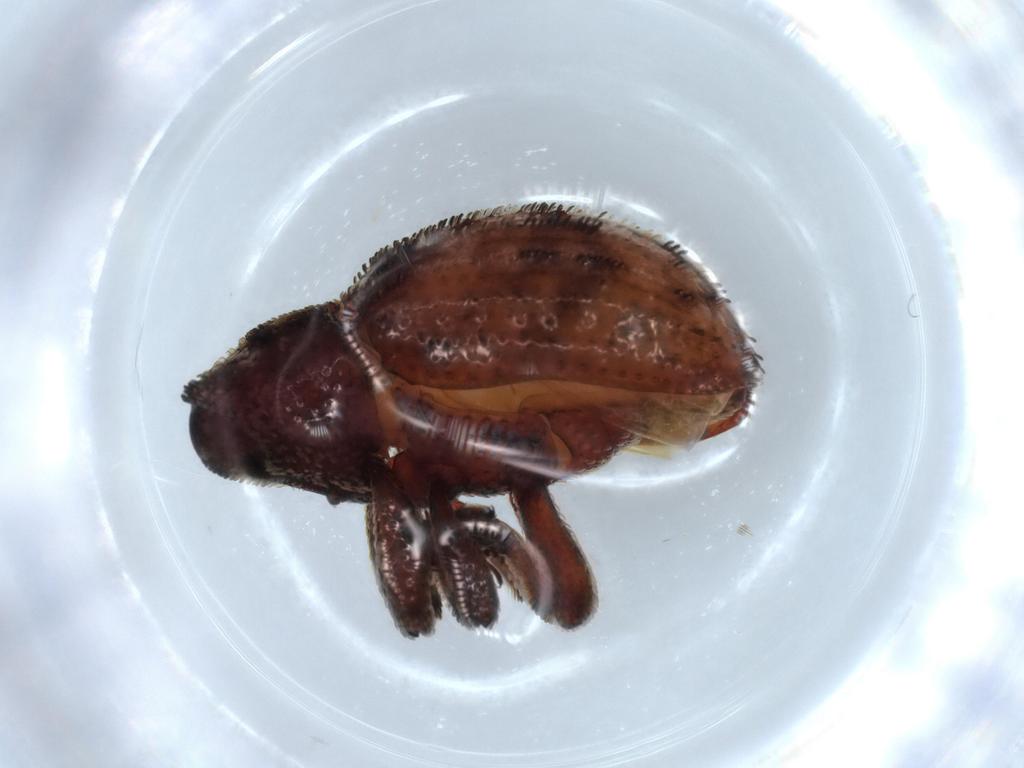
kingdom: Animalia
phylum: Arthropoda
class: Insecta
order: Coleoptera
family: Curculionidae
